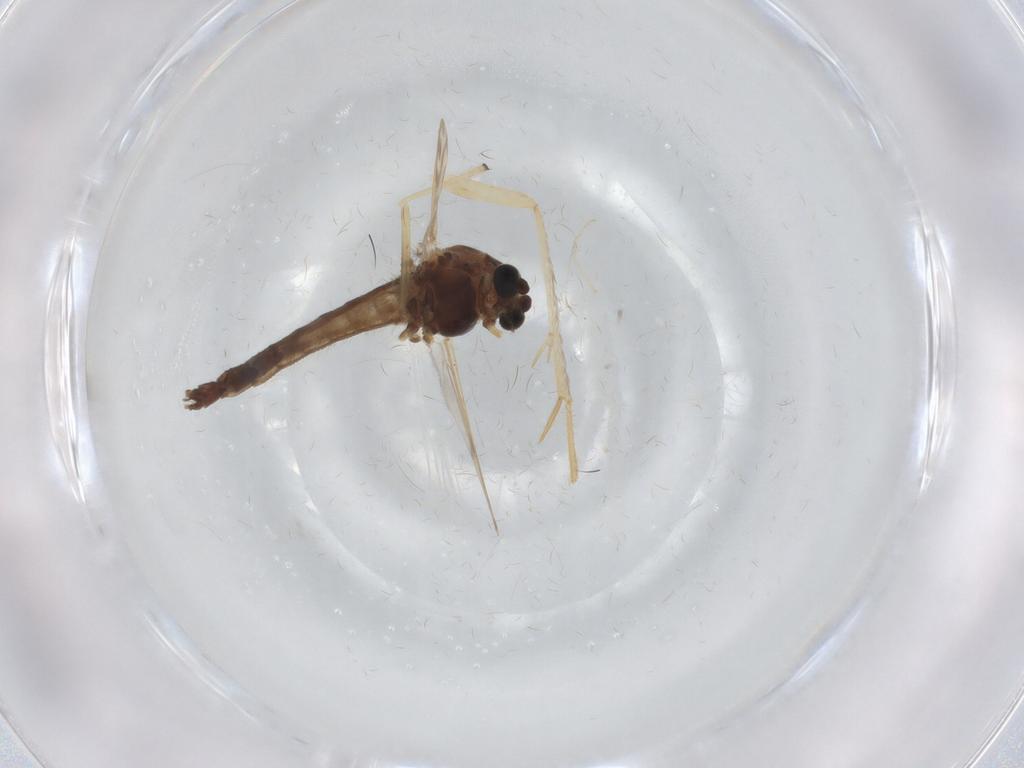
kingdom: Animalia
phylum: Arthropoda
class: Insecta
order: Diptera
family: Chironomidae
